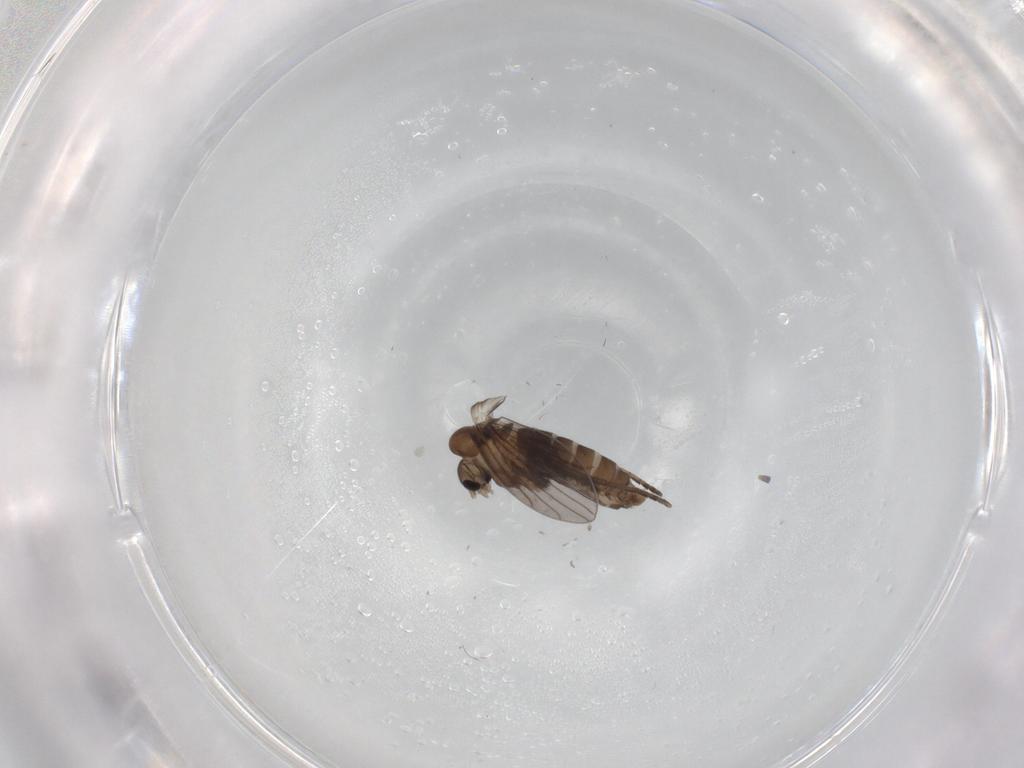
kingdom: Animalia
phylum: Arthropoda
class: Insecta
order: Diptera
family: Psychodidae
